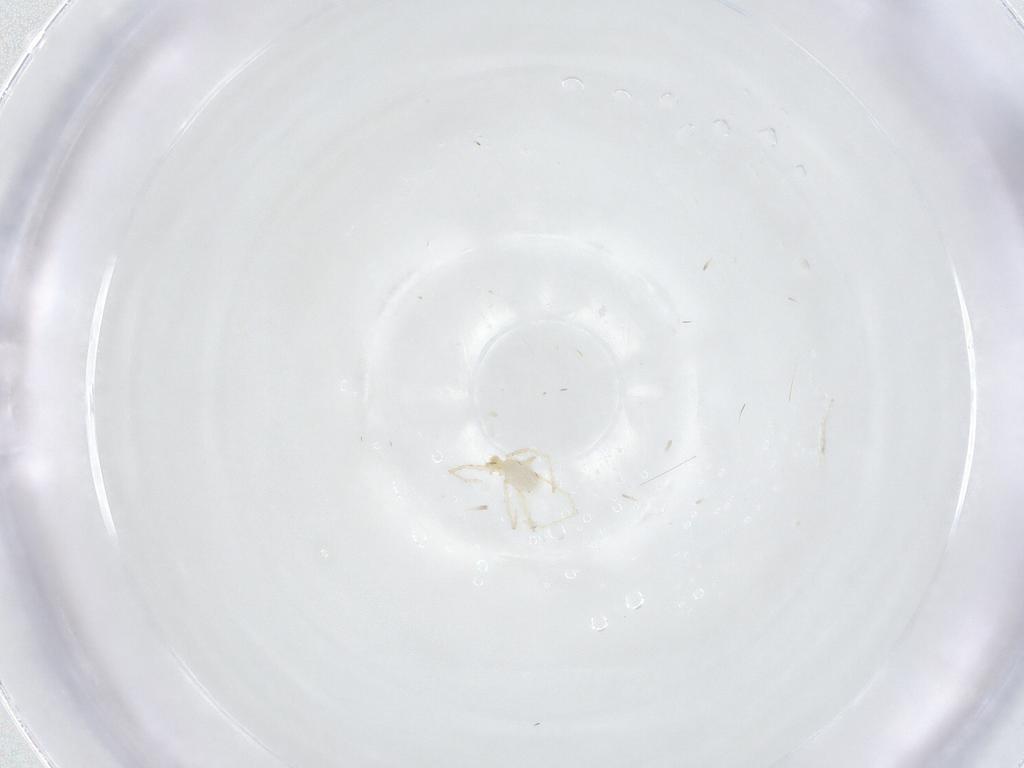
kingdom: Animalia
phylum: Arthropoda
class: Arachnida
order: Trombidiformes
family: Erythraeidae
